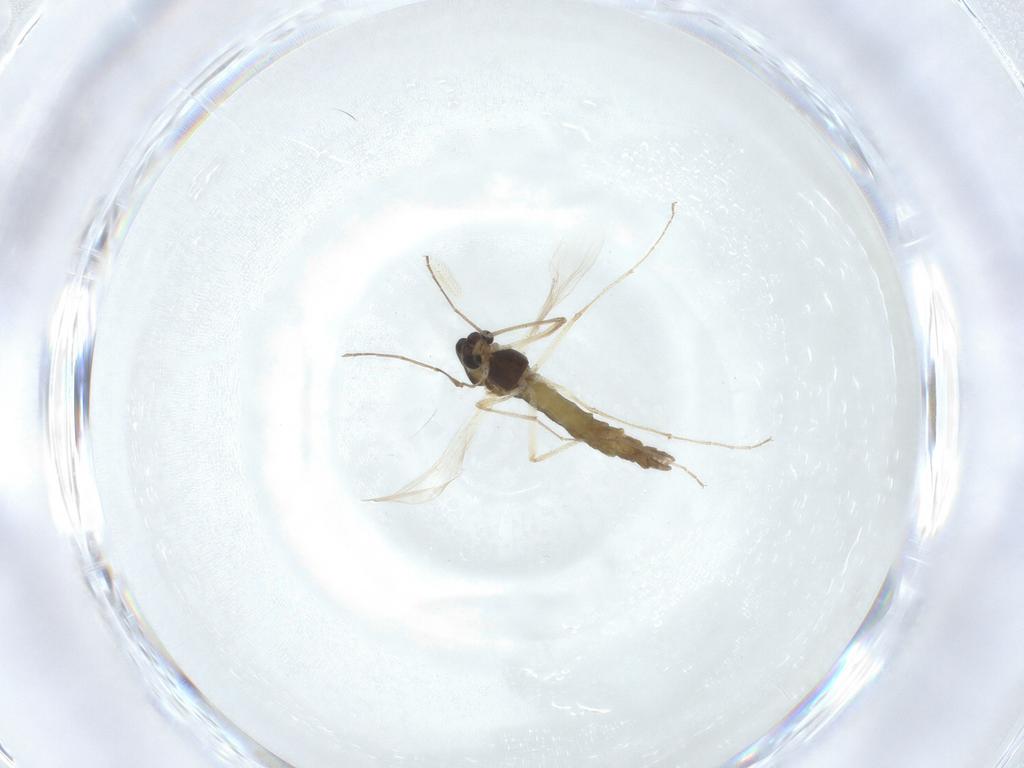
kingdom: Animalia
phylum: Arthropoda
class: Insecta
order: Diptera
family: Chironomidae
